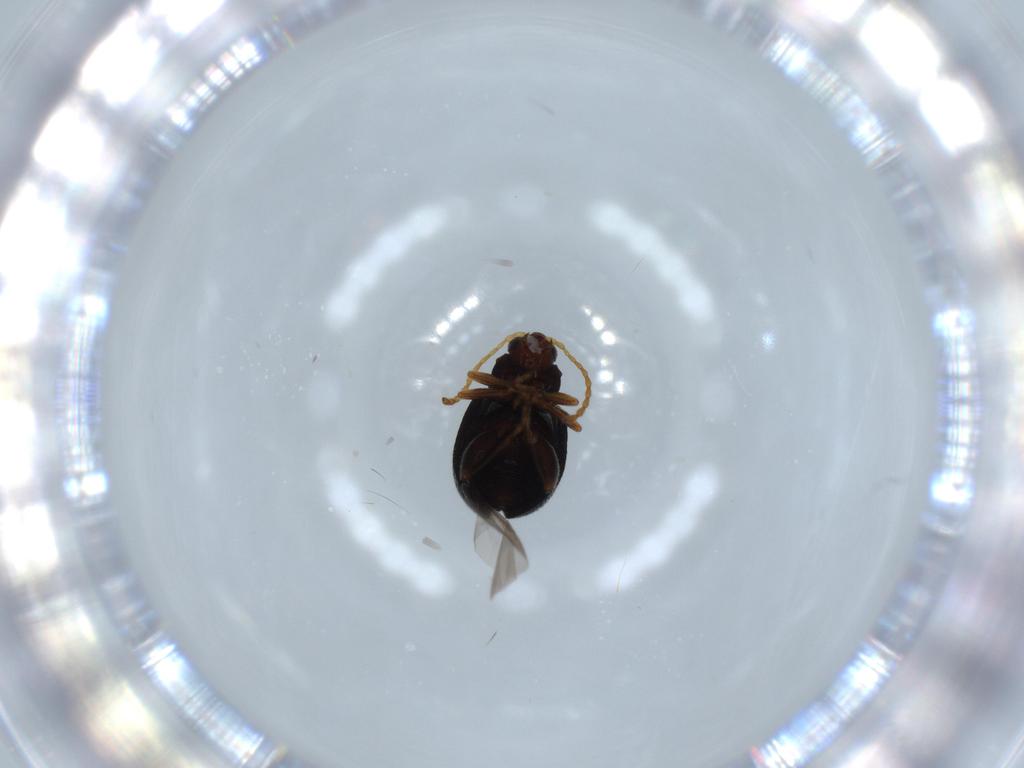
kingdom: Animalia
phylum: Arthropoda
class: Insecta
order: Coleoptera
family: Chrysomelidae
